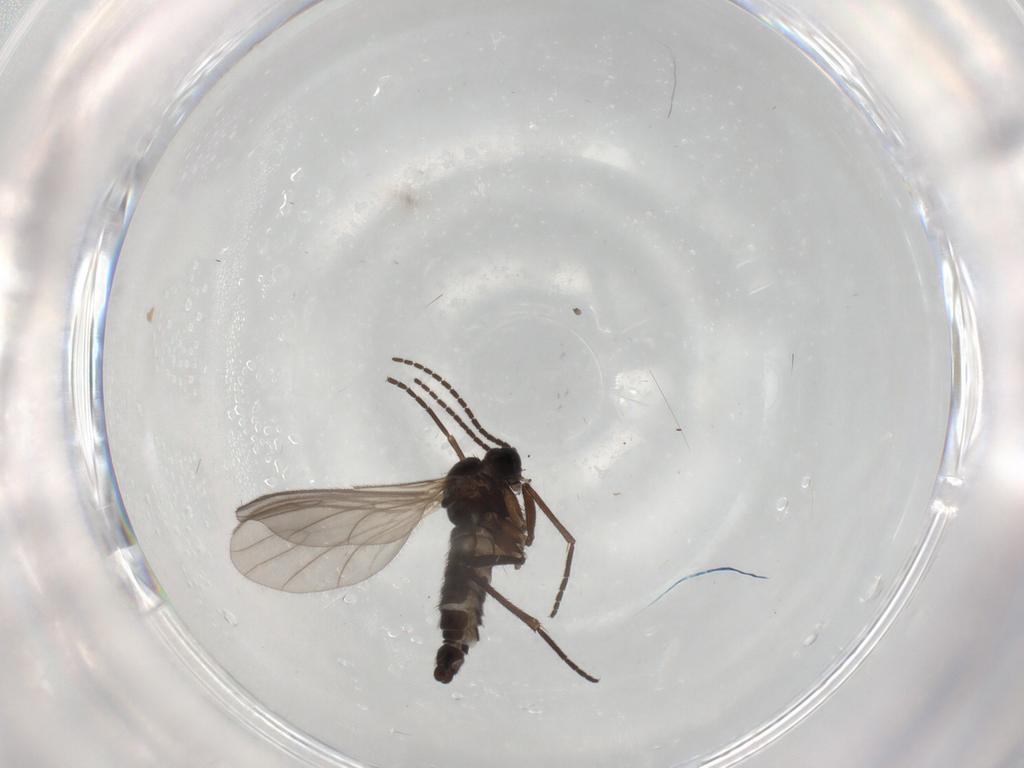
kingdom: Animalia
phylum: Arthropoda
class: Insecta
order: Diptera
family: Sciaridae
